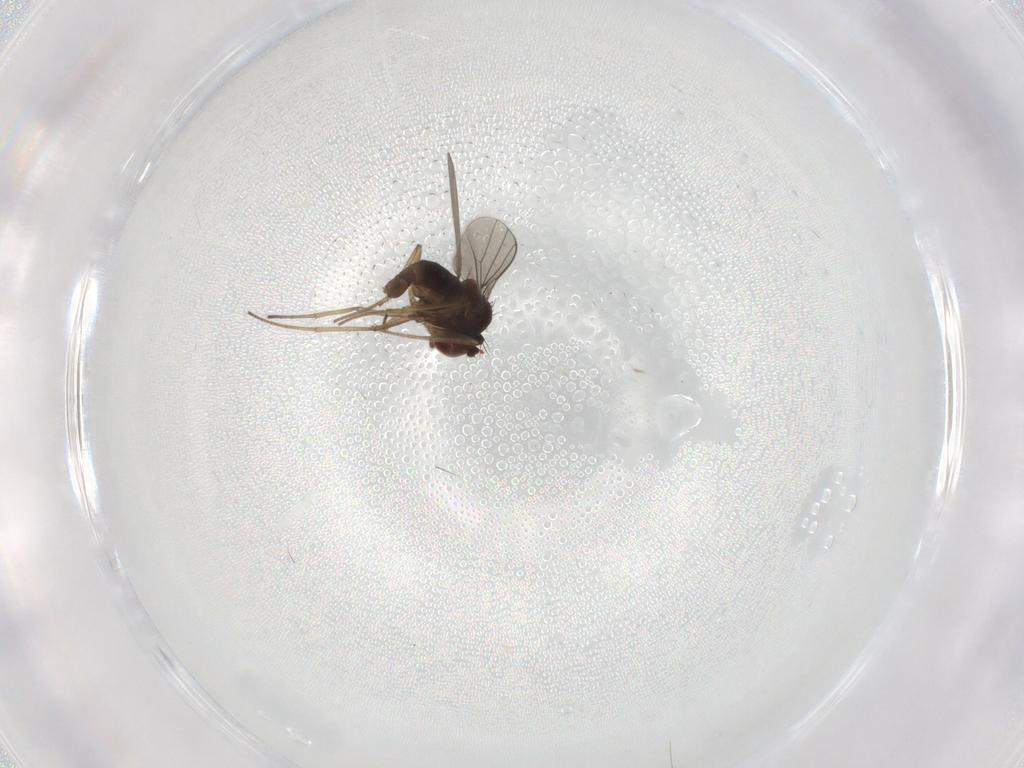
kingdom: Animalia
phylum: Arthropoda
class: Insecta
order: Diptera
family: Dolichopodidae
